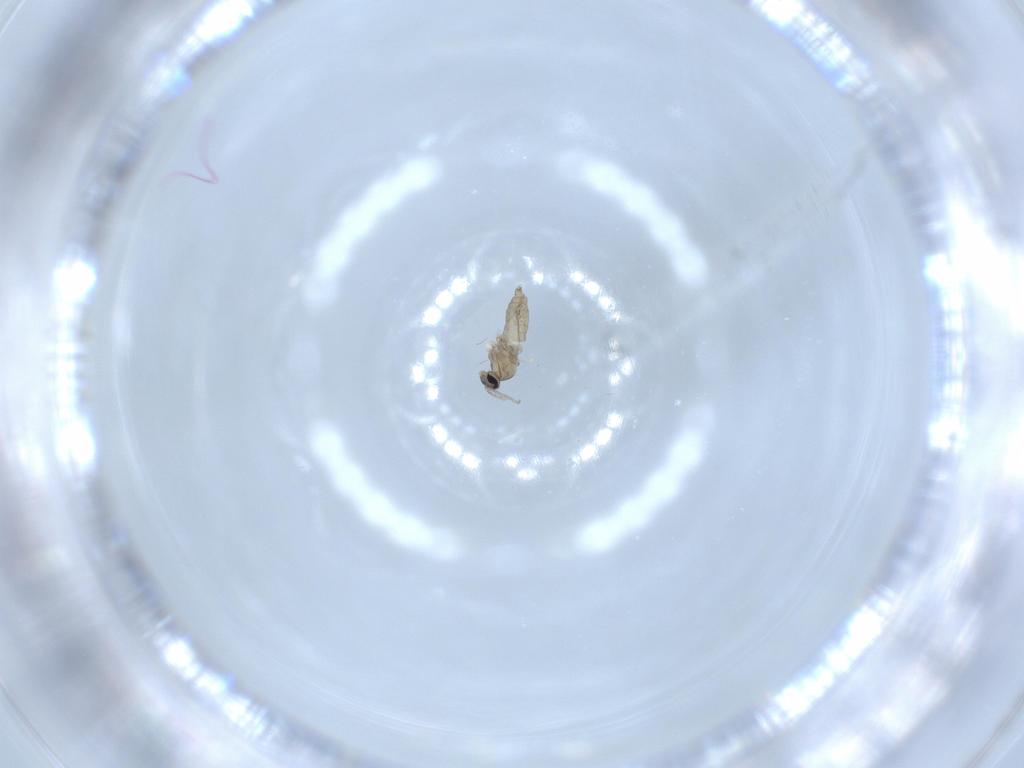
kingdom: Animalia
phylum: Arthropoda
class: Insecta
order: Diptera
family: Cecidomyiidae
